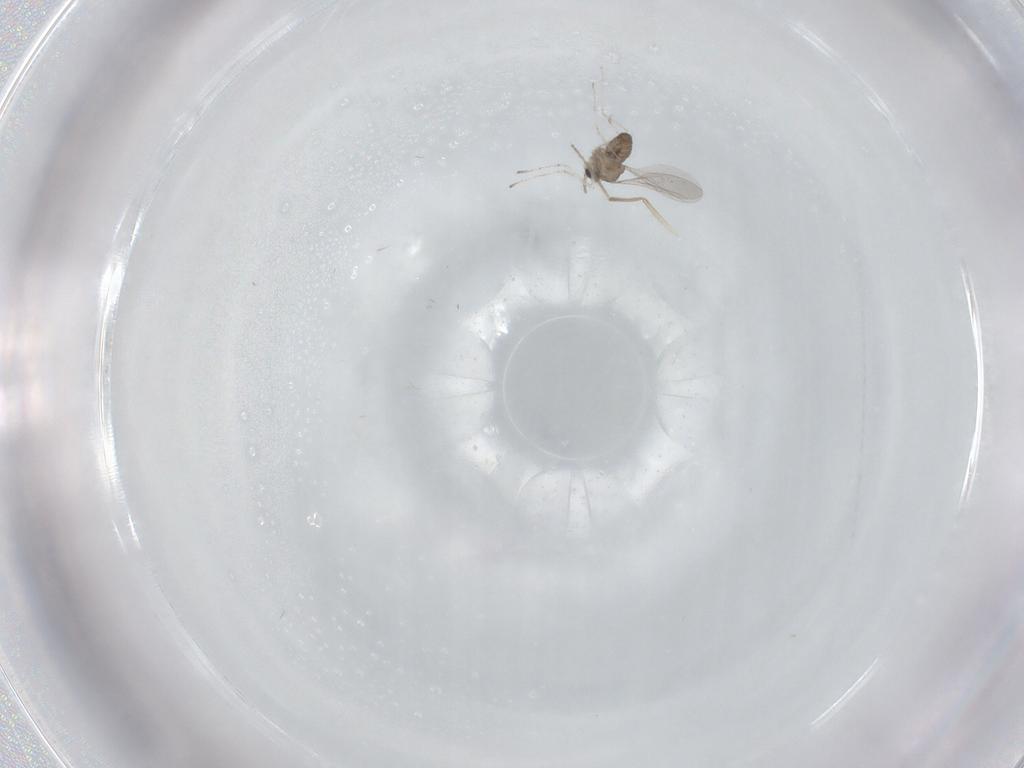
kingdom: Animalia
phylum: Arthropoda
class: Insecta
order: Diptera
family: Cecidomyiidae
